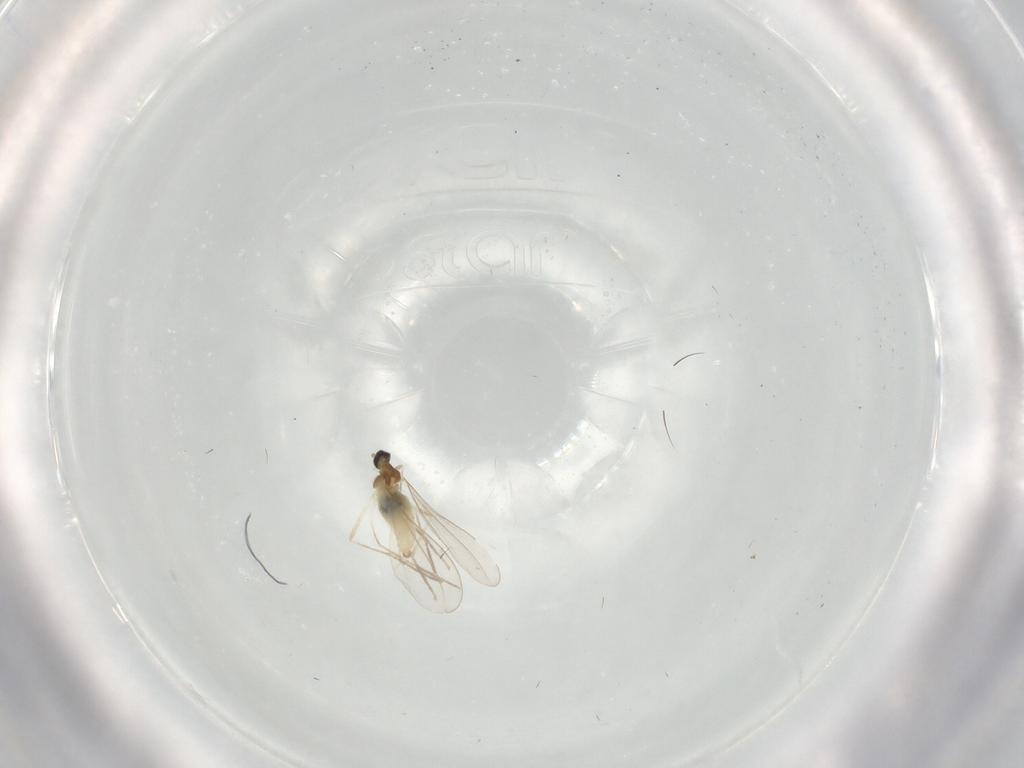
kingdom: Animalia
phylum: Arthropoda
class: Insecta
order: Diptera
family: Cecidomyiidae
